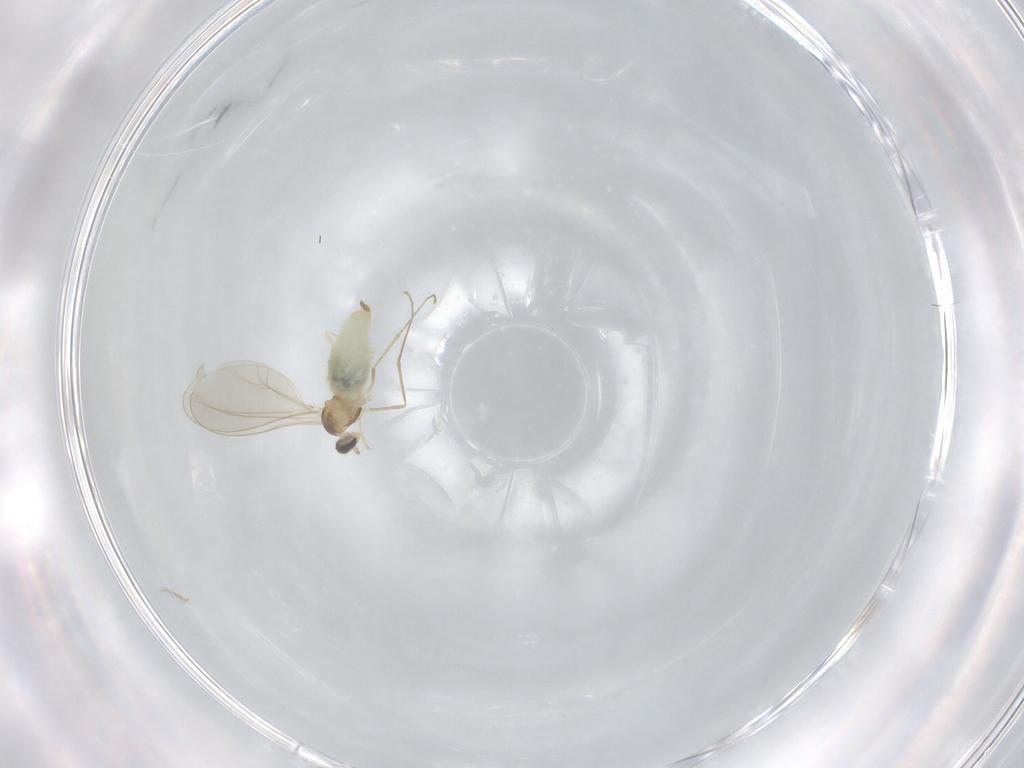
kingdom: Animalia
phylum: Arthropoda
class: Insecta
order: Diptera
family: Cecidomyiidae
